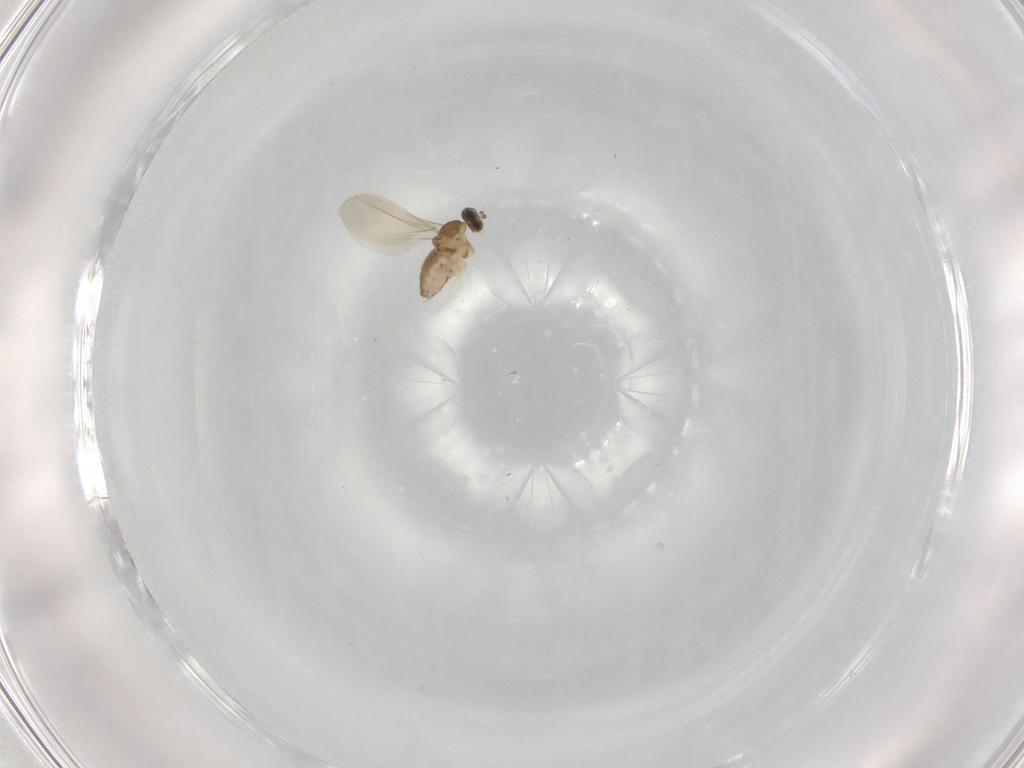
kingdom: Animalia
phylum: Arthropoda
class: Insecta
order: Diptera
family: Cecidomyiidae
